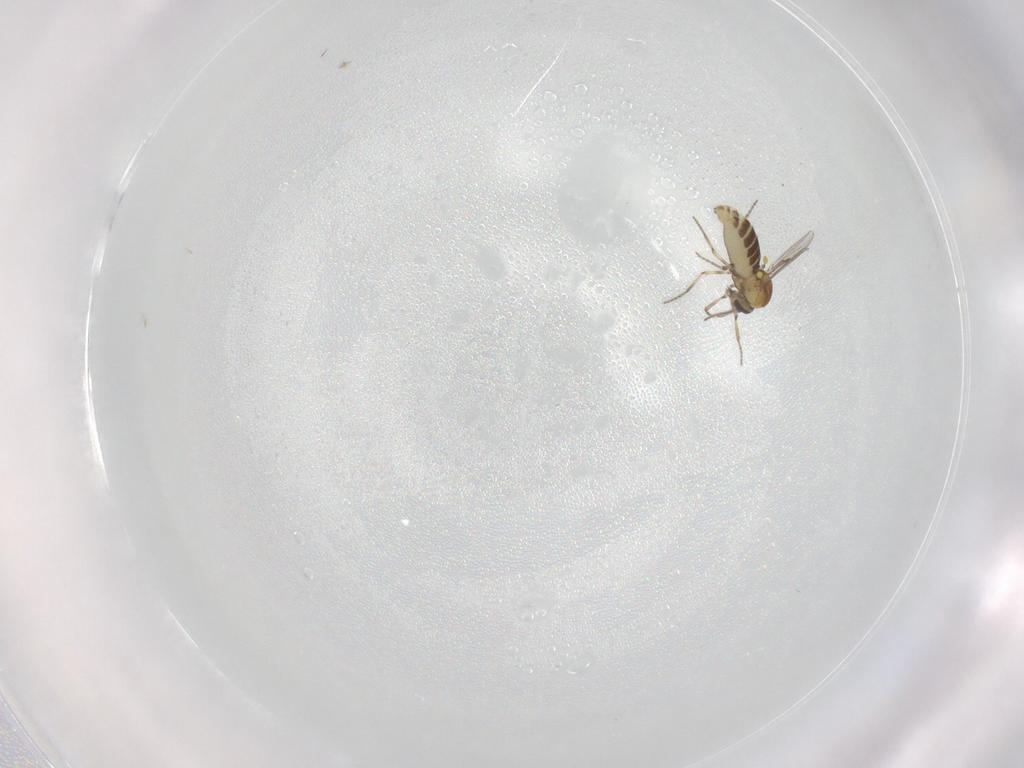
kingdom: Animalia
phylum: Arthropoda
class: Insecta
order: Diptera
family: Ceratopogonidae
